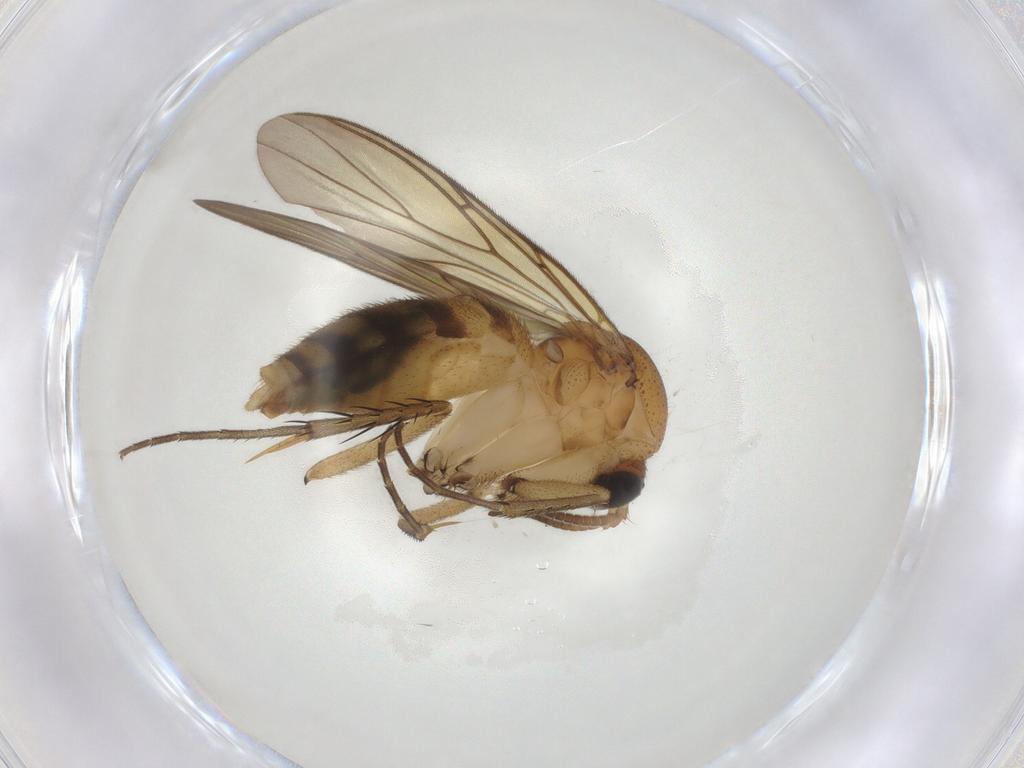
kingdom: Animalia
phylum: Arthropoda
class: Insecta
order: Diptera
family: Ceratopogonidae
